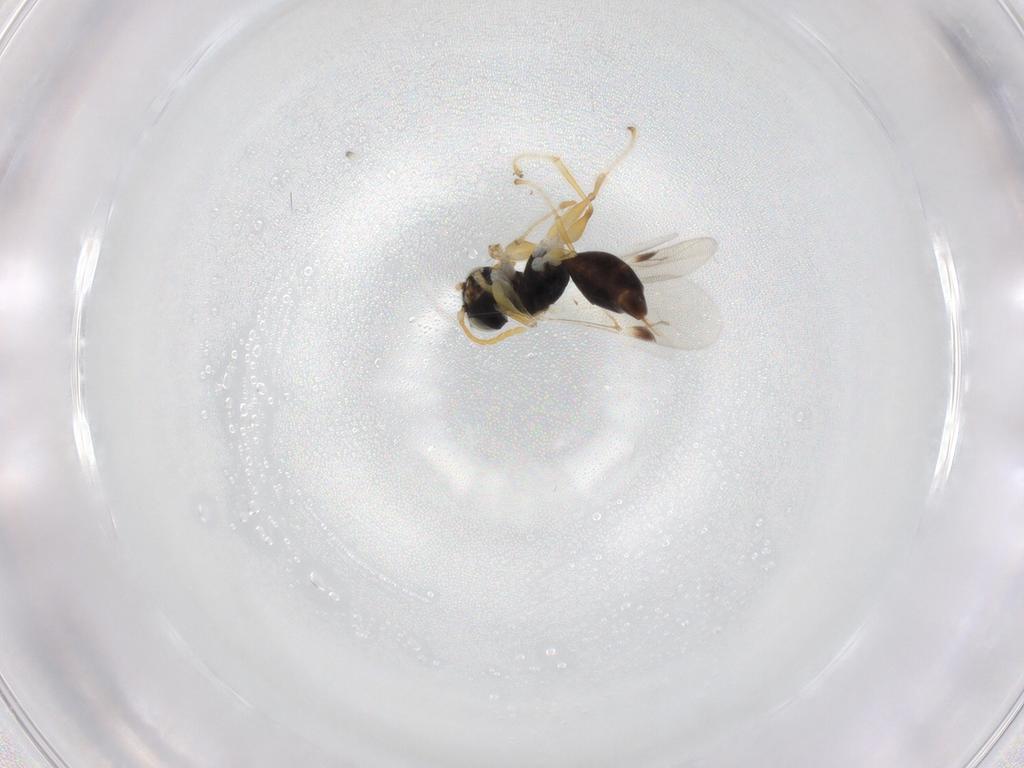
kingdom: Animalia
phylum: Arthropoda
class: Insecta
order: Hymenoptera
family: Dryinidae
